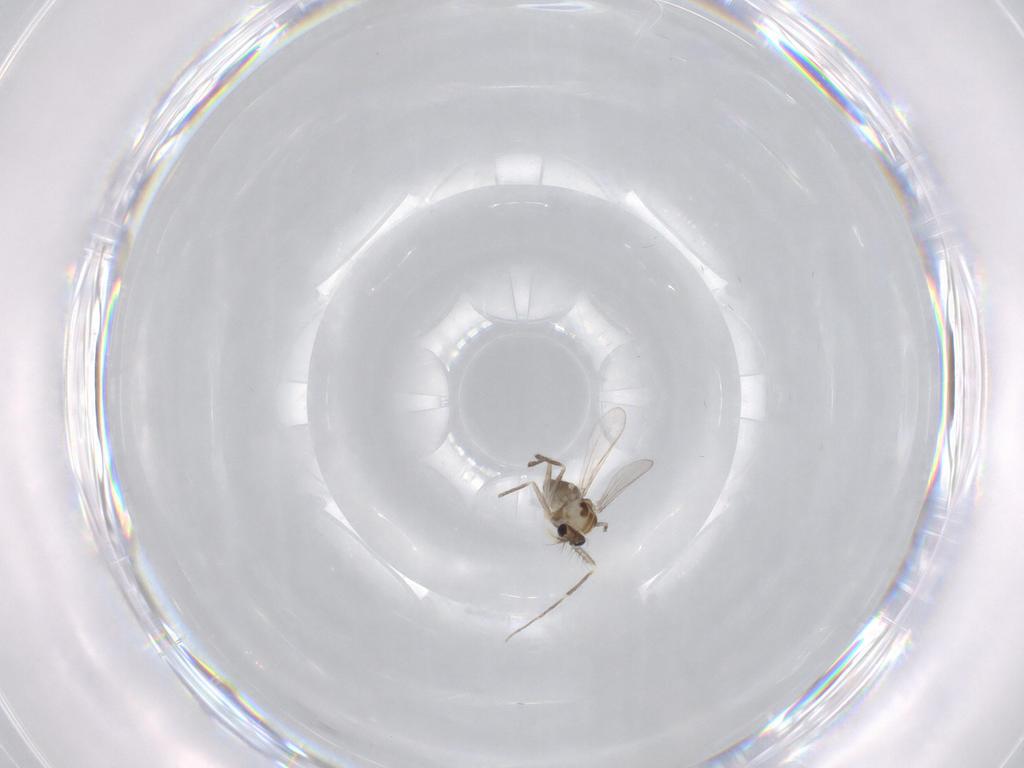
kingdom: Animalia
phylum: Arthropoda
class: Insecta
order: Diptera
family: Chironomidae
